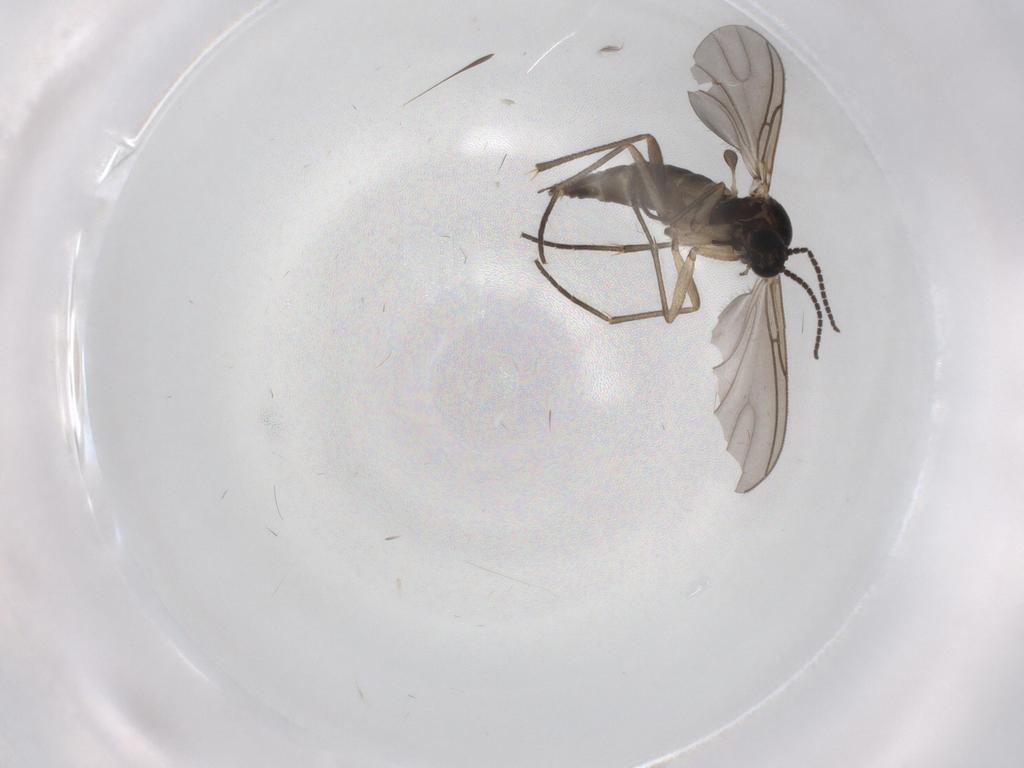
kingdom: Animalia
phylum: Arthropoda
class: Insecta
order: Diptera
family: Sciaridae
